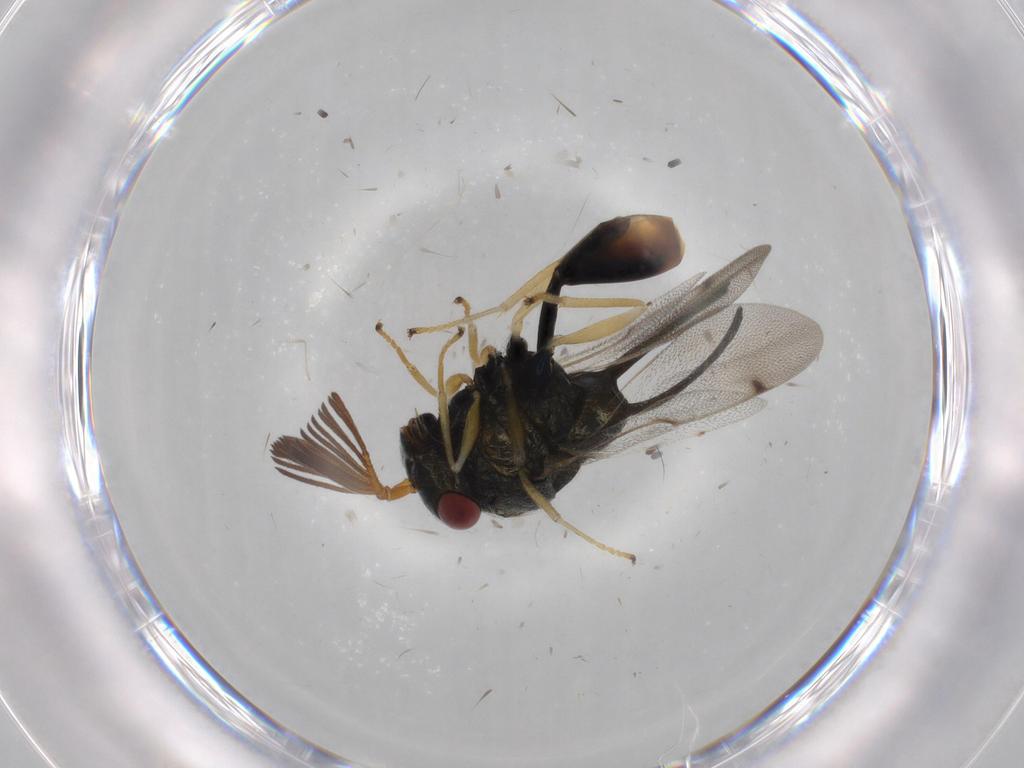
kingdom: Animalia
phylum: Arthropoda
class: Insecta
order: Hymenoptera
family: Eucharitidae
